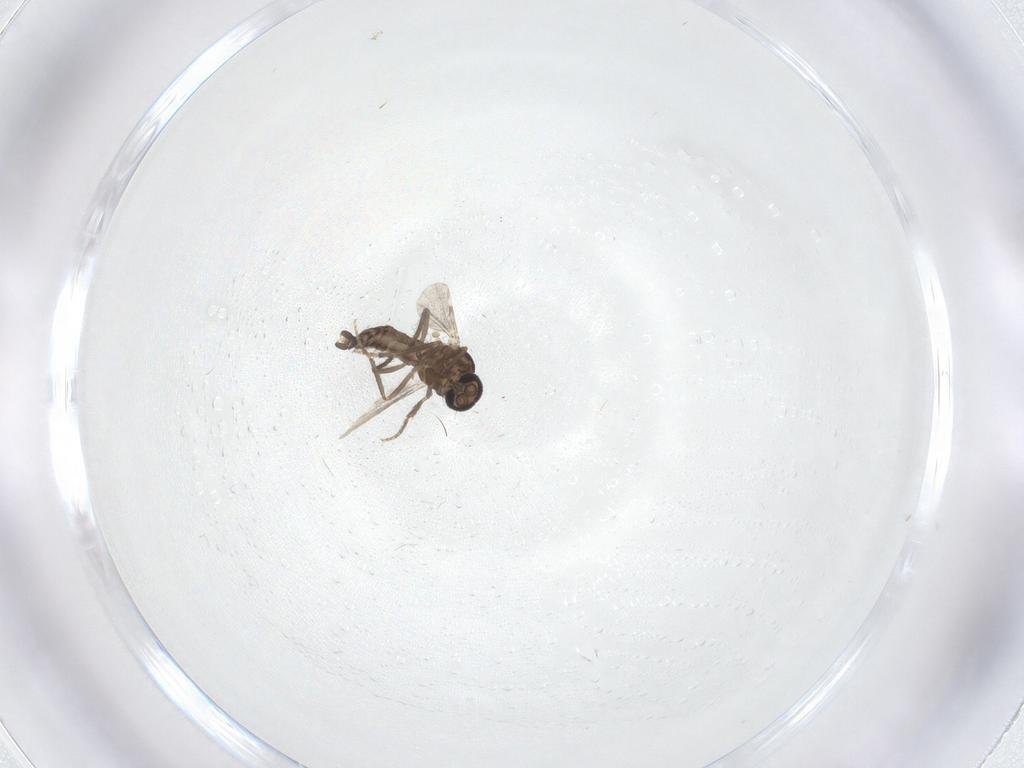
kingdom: Animalia
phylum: Arthropoda
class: Insecta
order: Diptera
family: Ceratopogonidae
